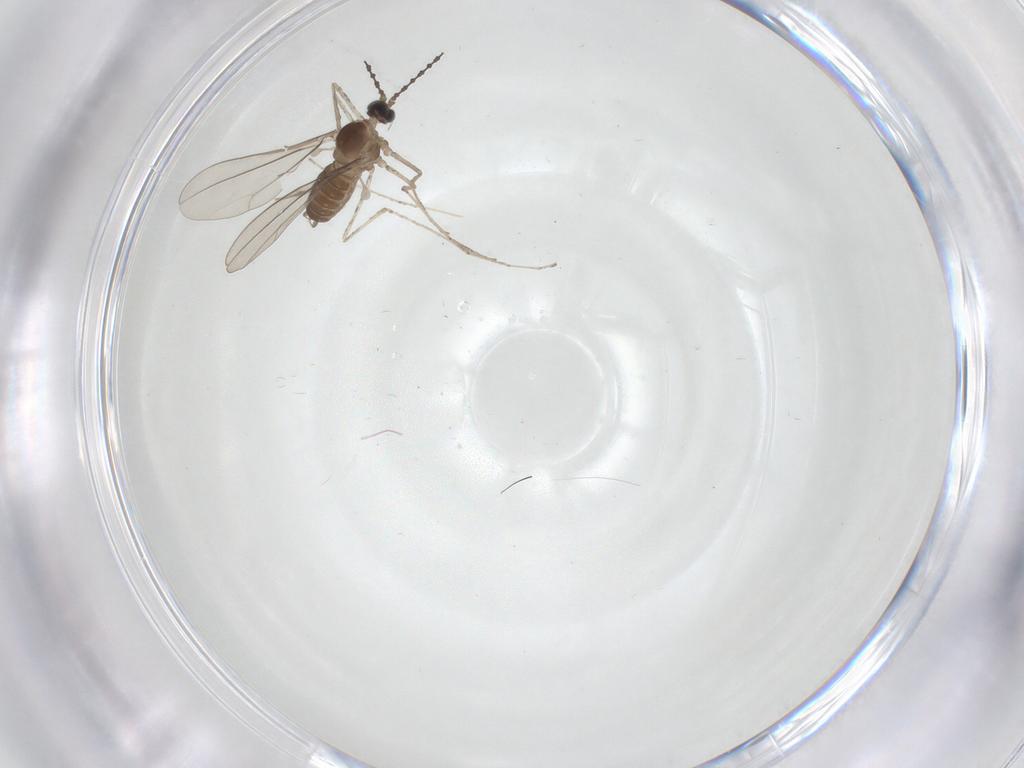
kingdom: Animalia
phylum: Arthropoda
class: Insecta
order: Diptera
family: Cecidomyiidae
